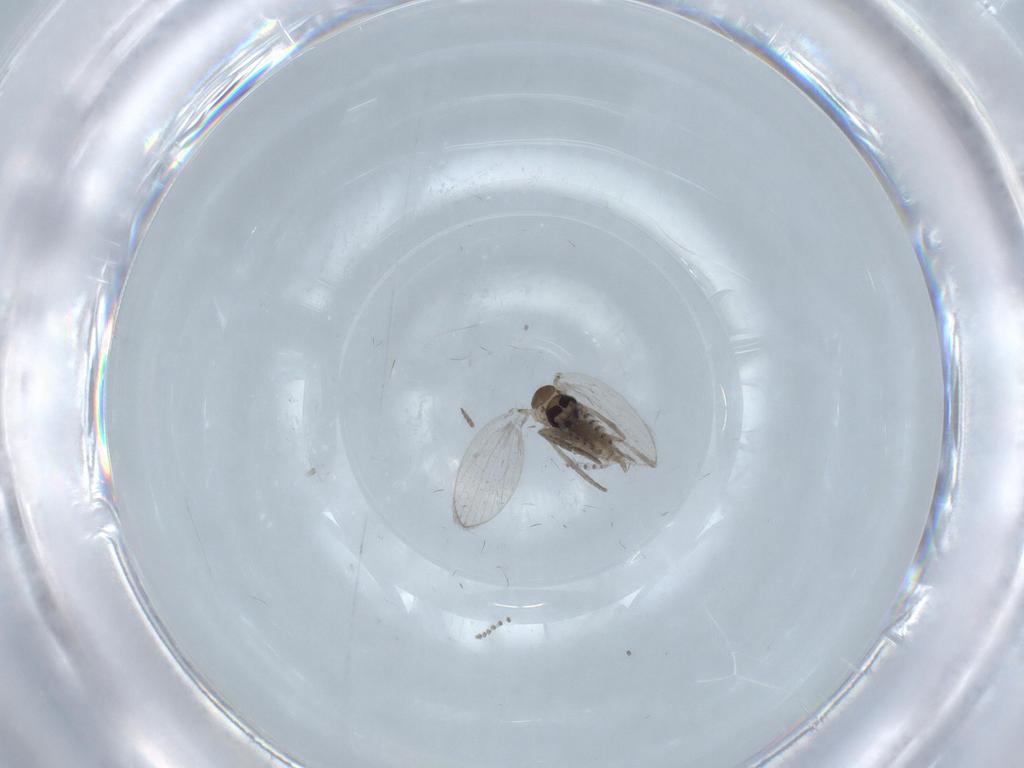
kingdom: Animalia
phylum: Arthropoda
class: Insecta
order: Diptera
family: Psychodidae
